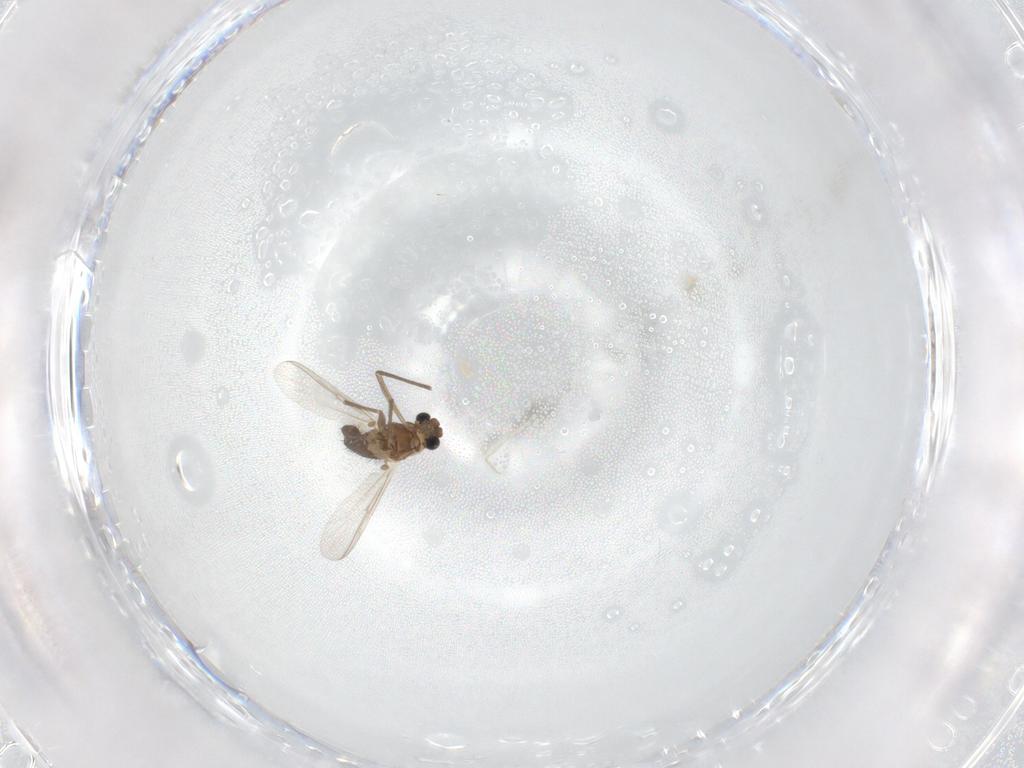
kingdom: Animalia
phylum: Arthropoda
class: Insecta
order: Diptera
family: Chironomidae
